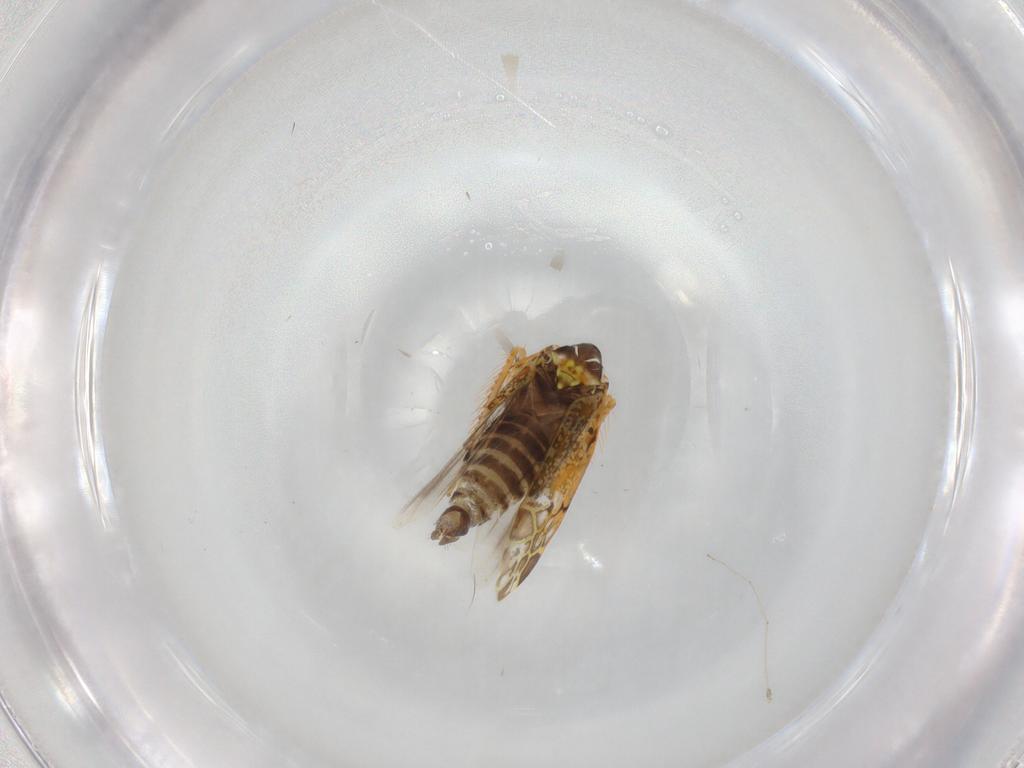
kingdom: Animalia
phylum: Arthropoda
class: Insecta
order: Hemiptera
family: Cicadellidae
